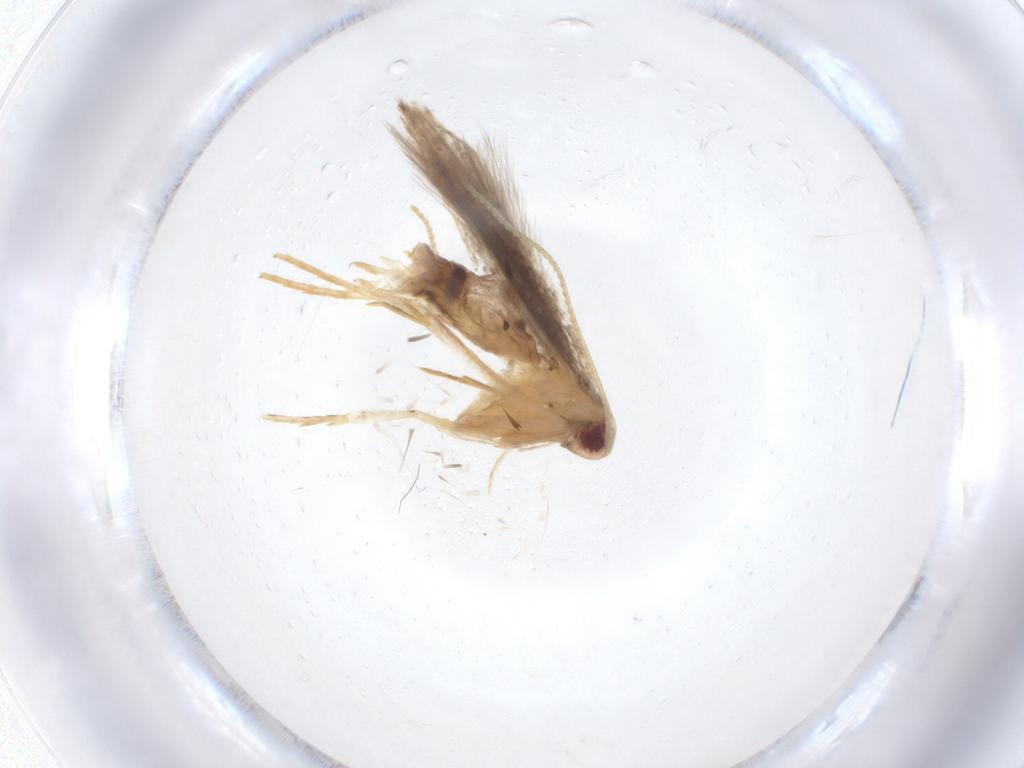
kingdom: Animalia
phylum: Arthropoda
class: Insecta
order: Lepidoptera
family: Cosmopterigidae
